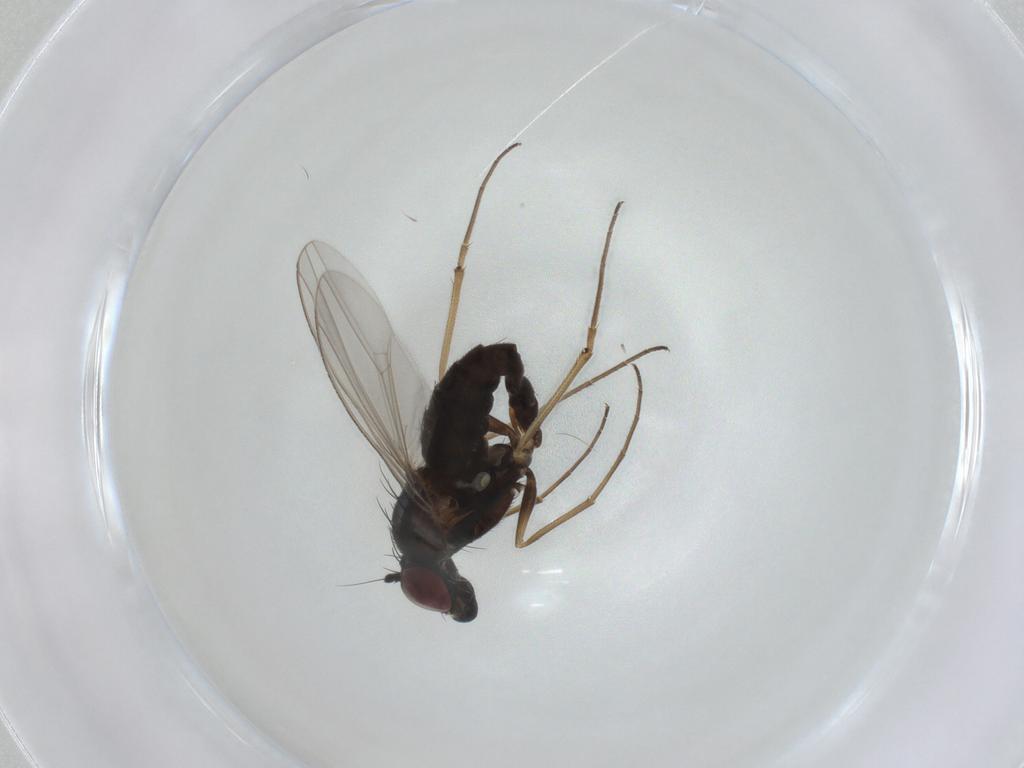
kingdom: Animalia
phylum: Arthropoda
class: Insecta
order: Diptera
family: Dolichopodidae
